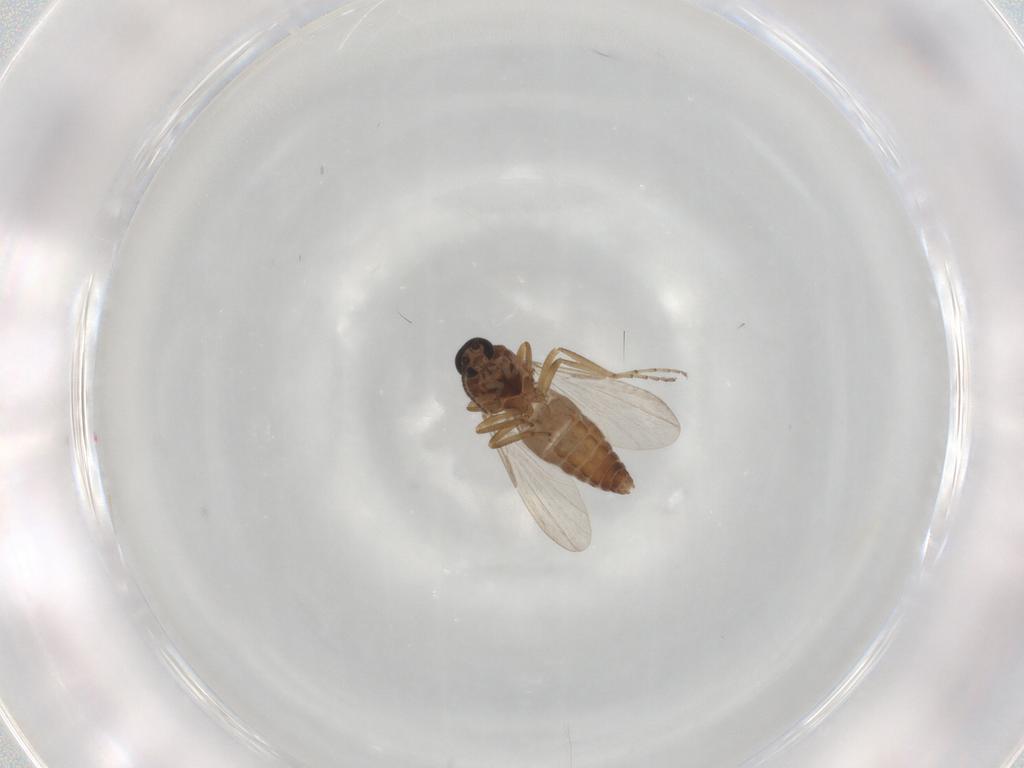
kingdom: Animalia
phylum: Arthropoda
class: Insecta
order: Diptera
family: Ceratopogonidae
